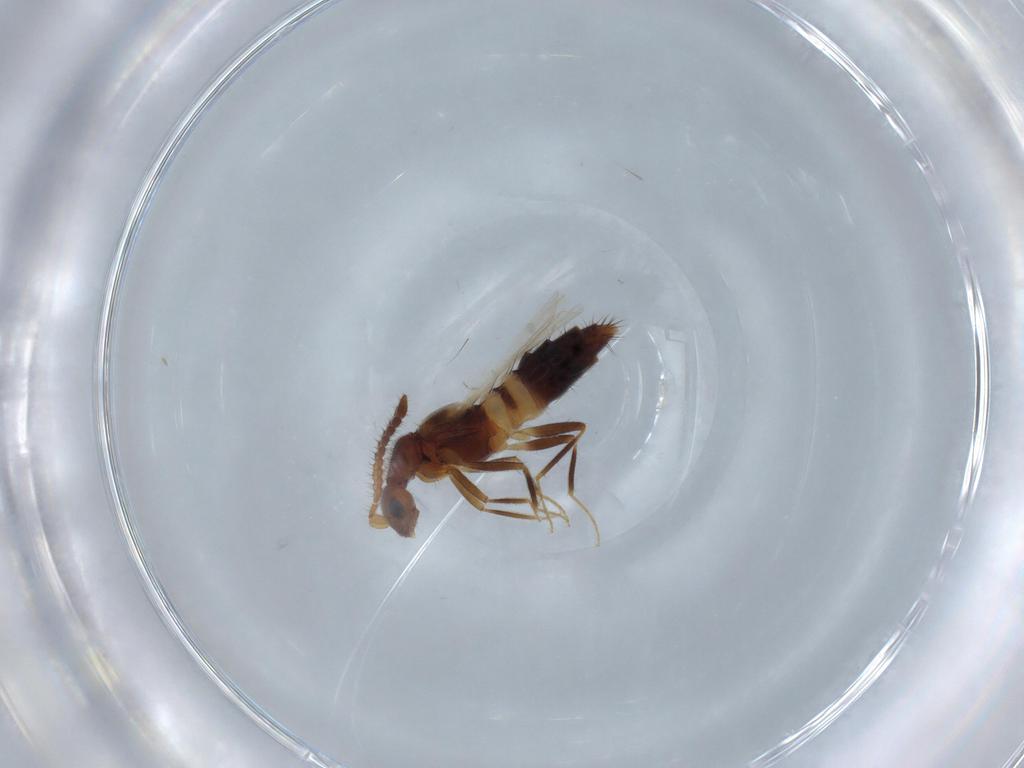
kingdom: Animalia
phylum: Arthropoda
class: Insecta
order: Coleoptera
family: Staphylinidae
